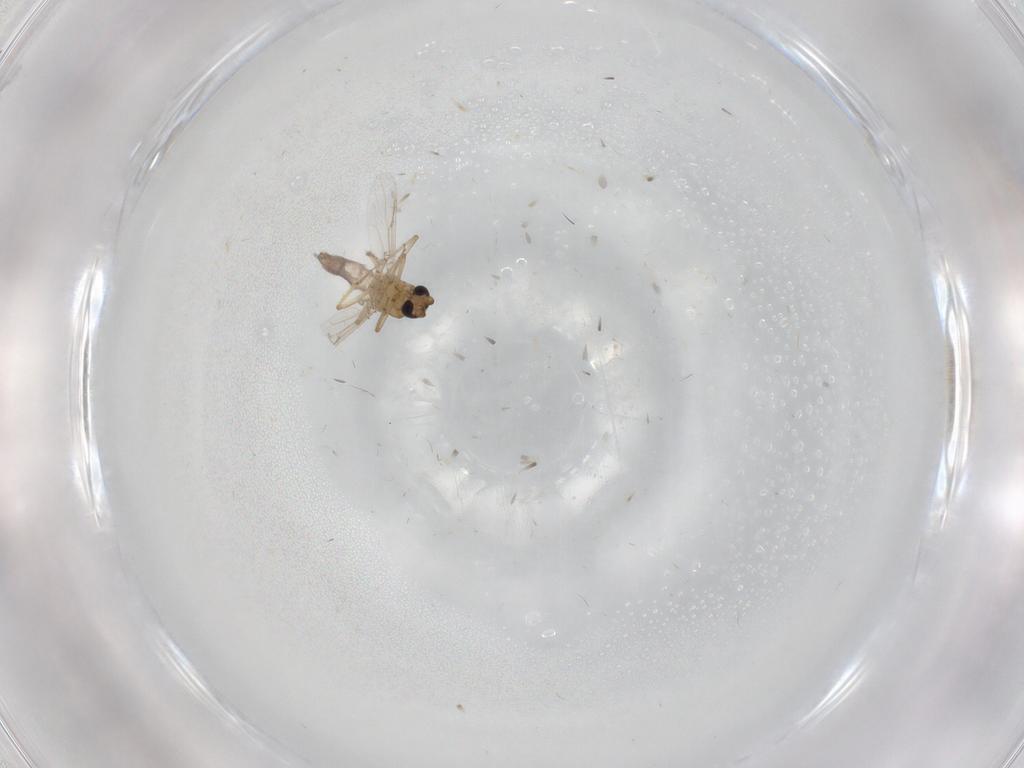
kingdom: Animalia
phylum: Arthropoda
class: Insecta
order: Diptera
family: Ceratopogonidae
